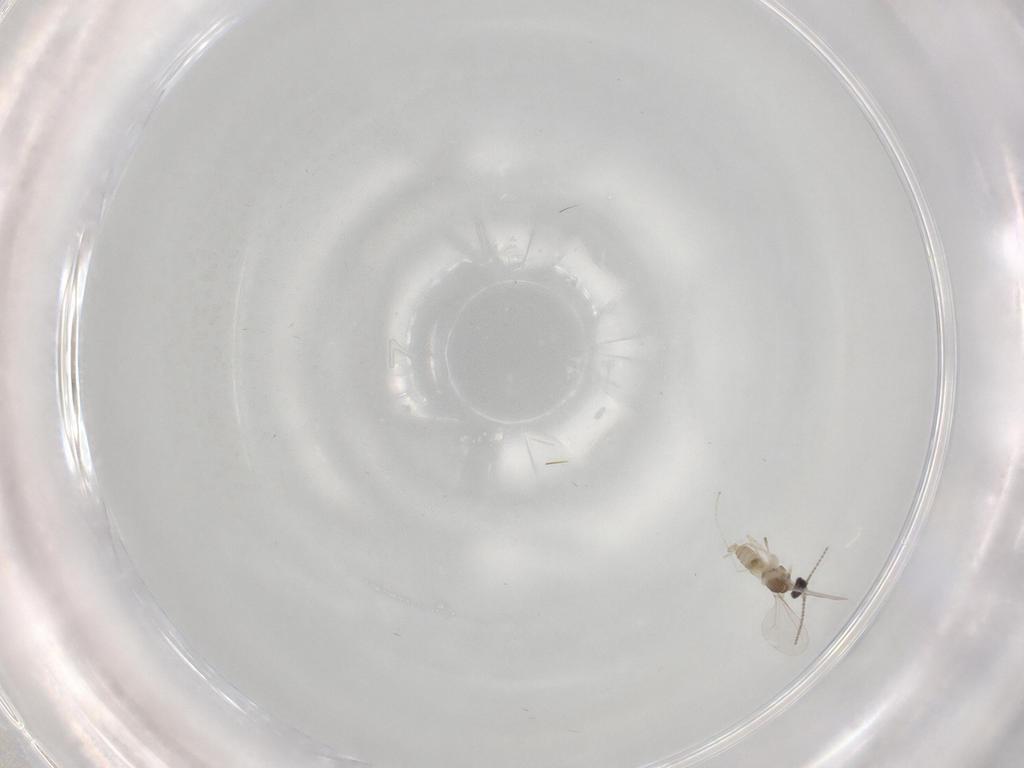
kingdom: Animalia
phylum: Arthropoda
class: Insecta
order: Diptera
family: Cecidomyiidae
